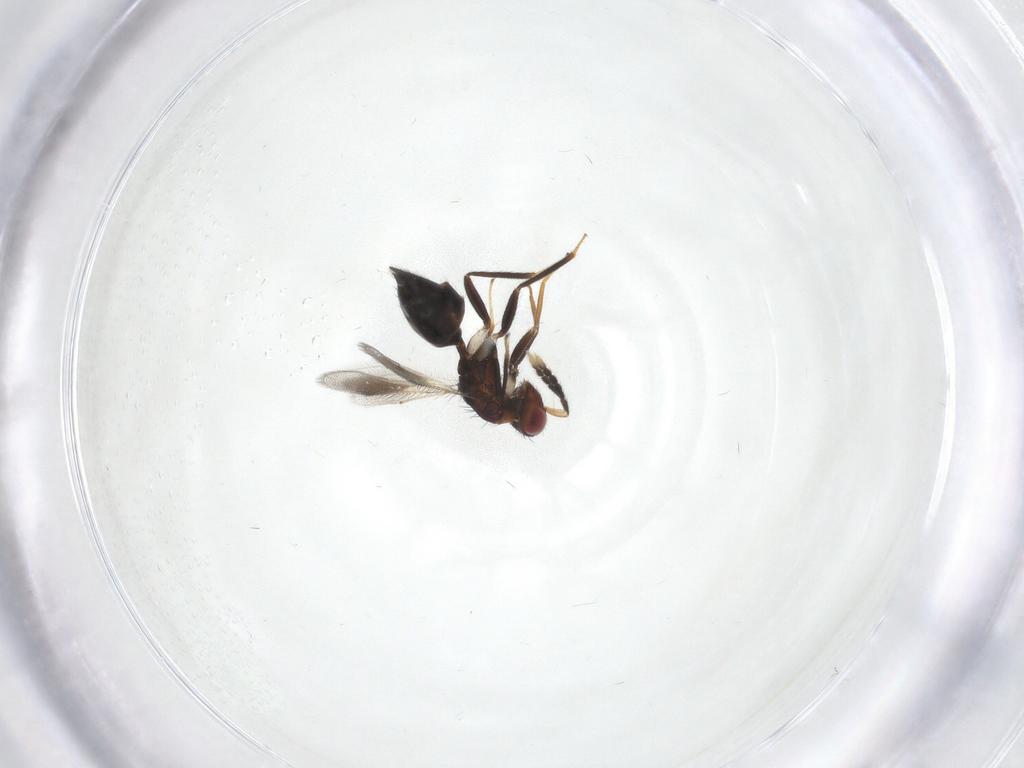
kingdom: Animalia
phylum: Arthropoda
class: Insecta
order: Hymenoptera
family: Eulophidae
